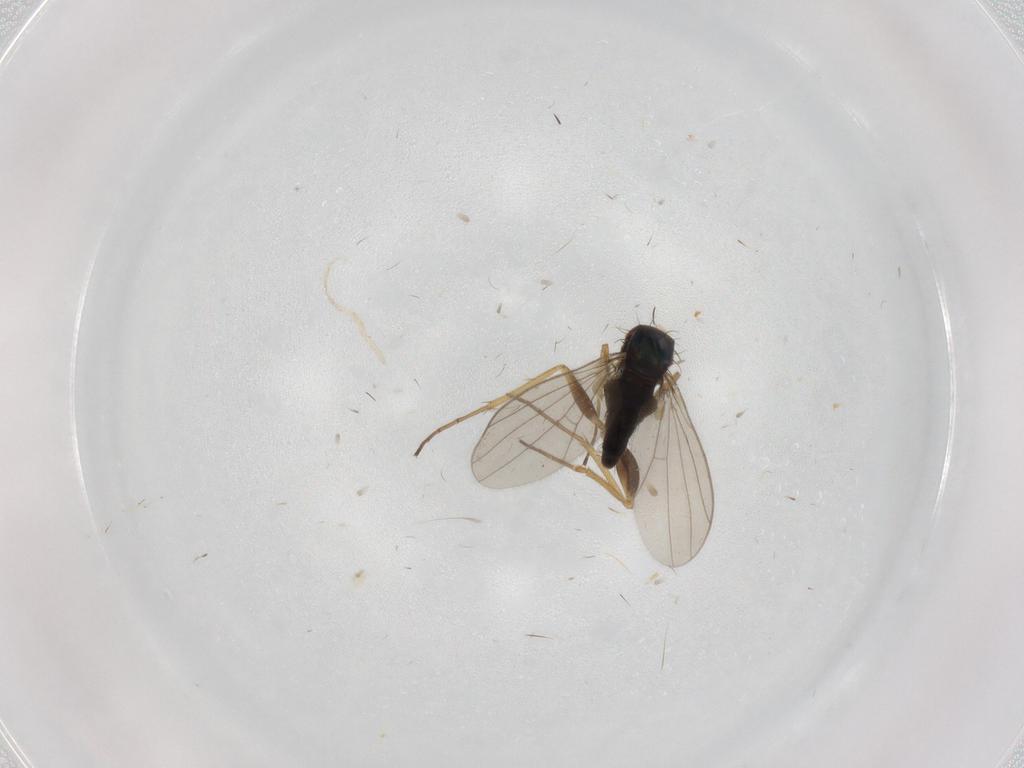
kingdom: Animalia
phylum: Arthropoda
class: Insecta
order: Diptera
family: Dolichopodidae
